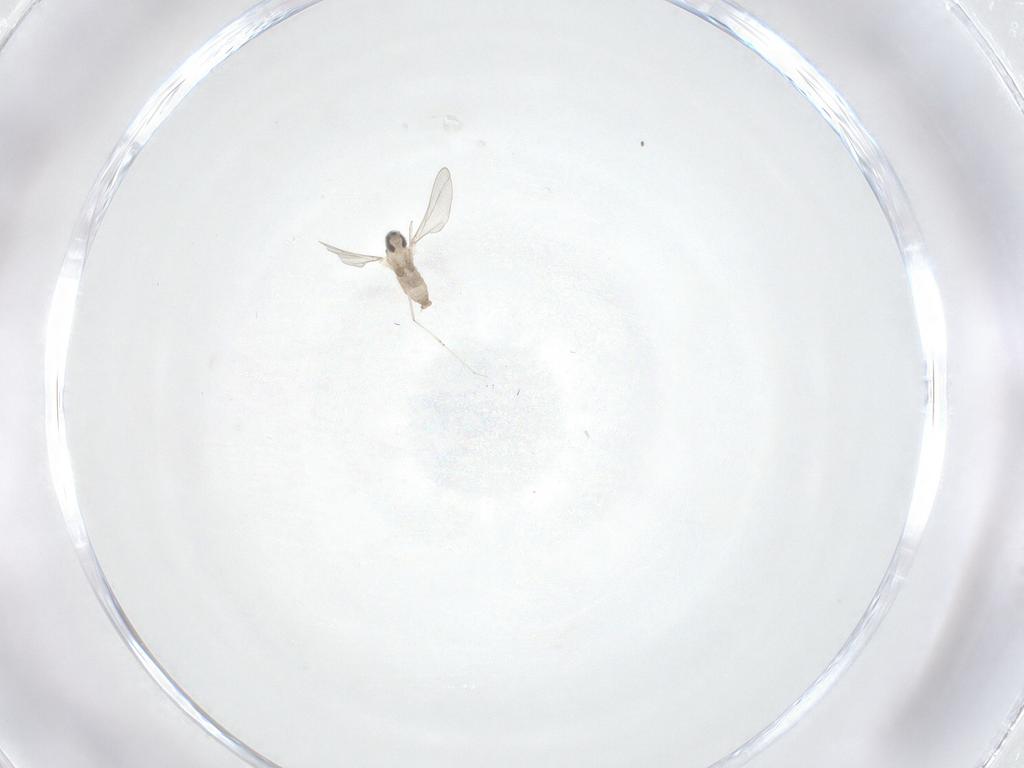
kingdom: Animalia
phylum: Arthropoda
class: Insecta
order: Diptera
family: Cecidomyiidae
